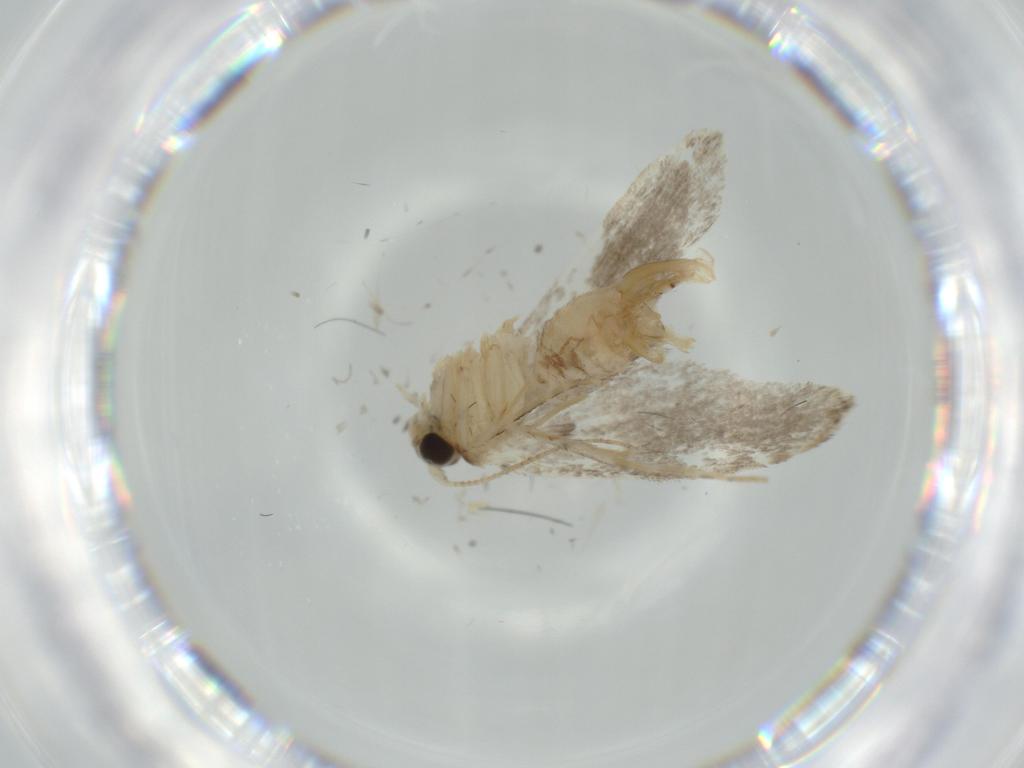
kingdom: Animalia
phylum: Arthropoda
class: Insecta
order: Lepidoptera
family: Tineidae
